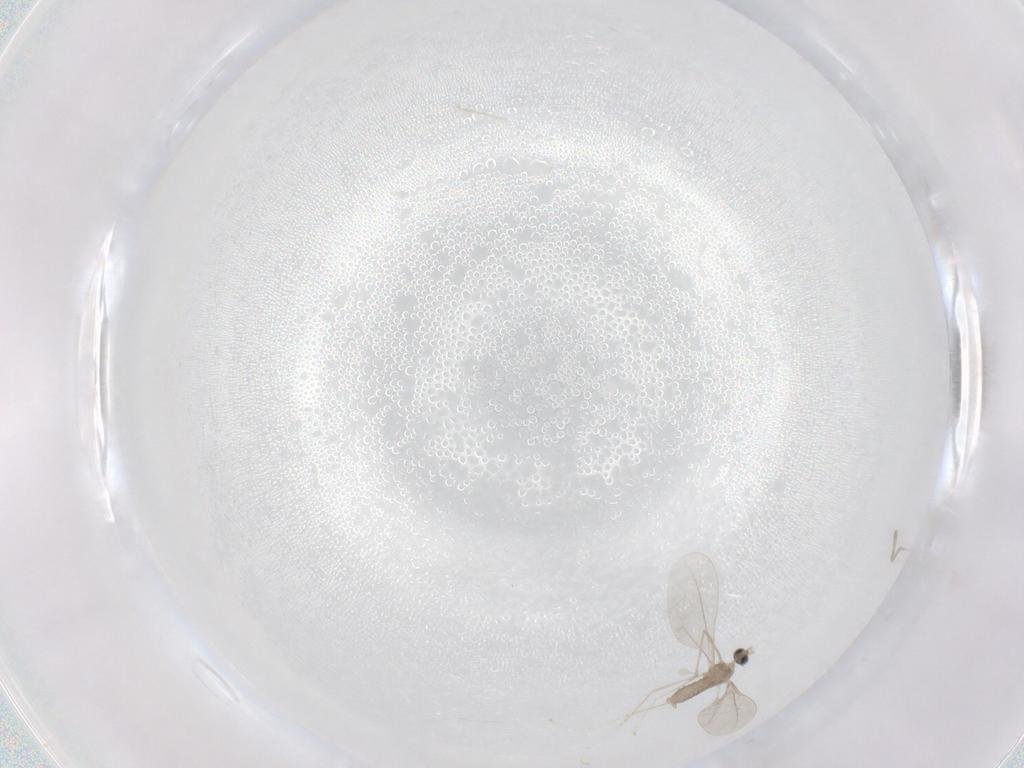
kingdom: Animalia
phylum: Arthropoda
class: Insecta
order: Diptera
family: Cecidomyiidae
